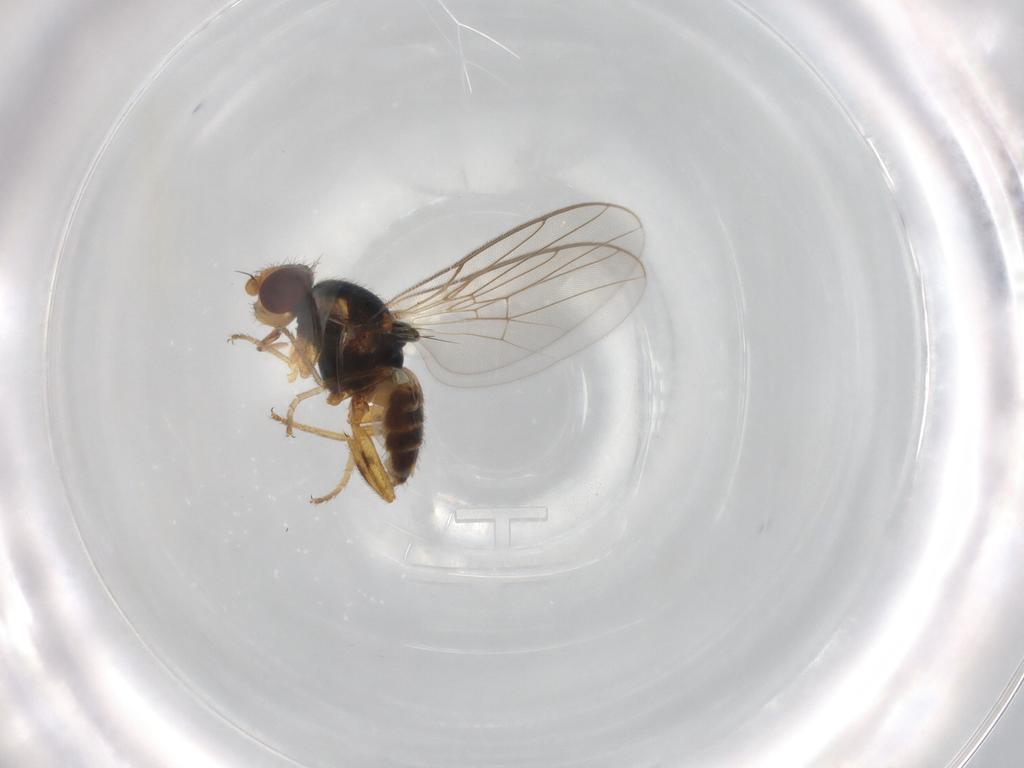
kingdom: Animalia
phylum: Arthropoda
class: Insecta
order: Diptera
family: Chloropidae
